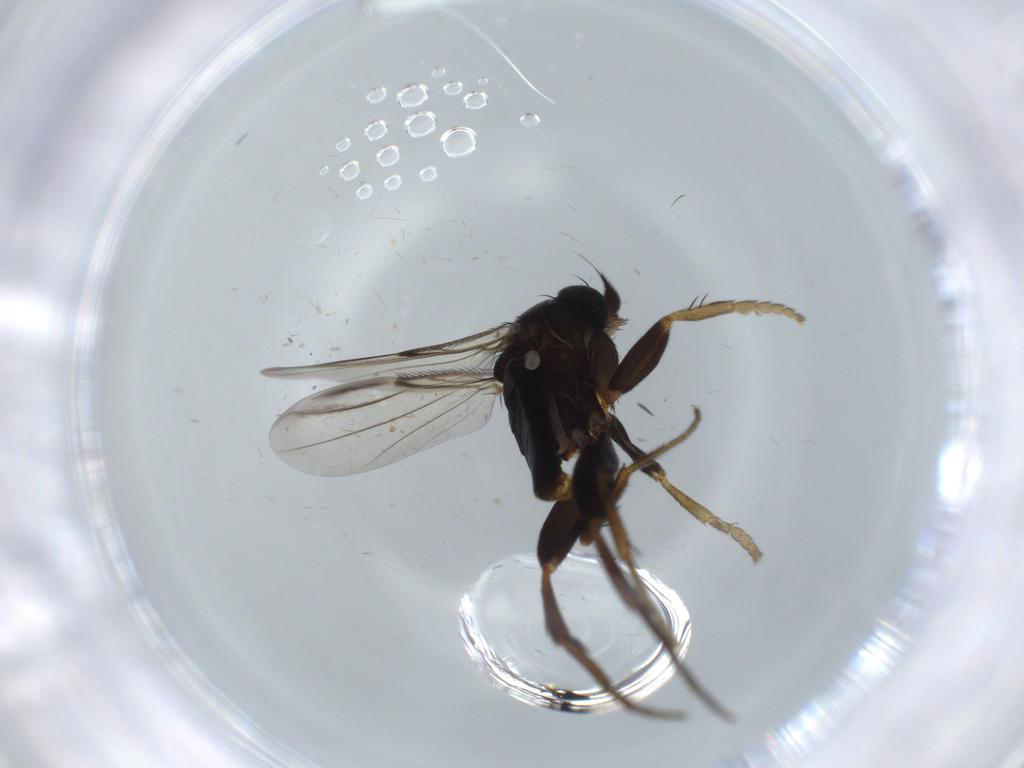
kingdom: Animalia
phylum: Arthropoda
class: Insecta
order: Diptera
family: Phoridae
